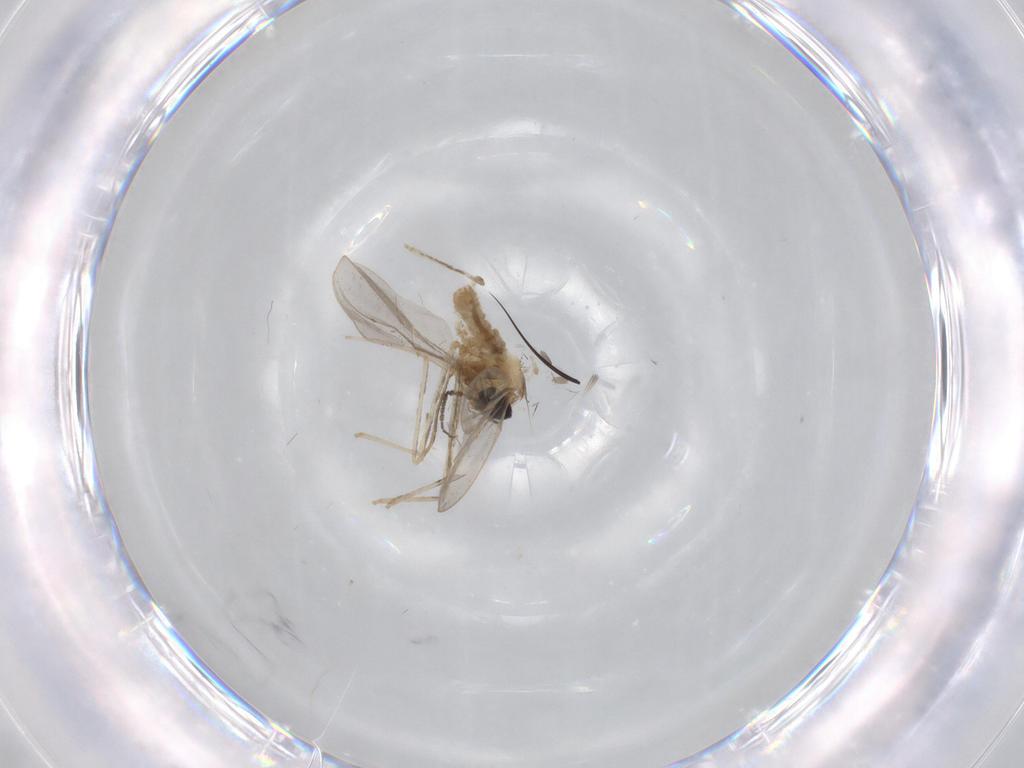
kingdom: Animalia
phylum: Arthropoda
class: Insecta
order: Diptera
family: Cecidomyiidae
